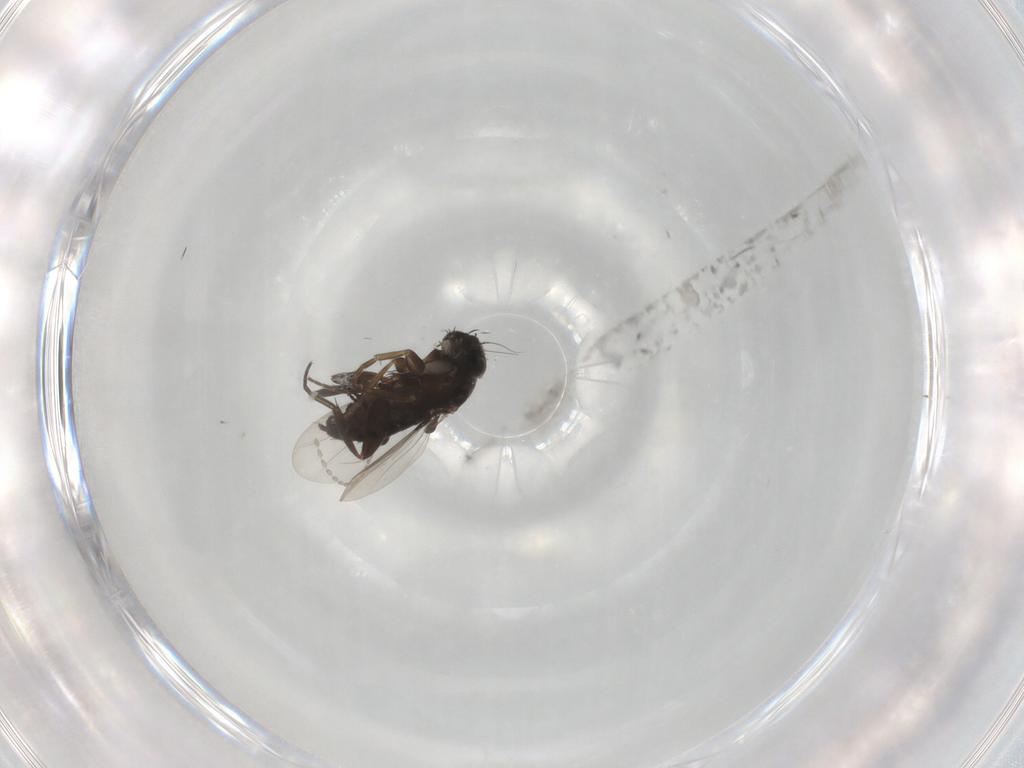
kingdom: Animalia
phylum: Arthropoda
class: Insecta
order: Diptera
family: Phoridae
